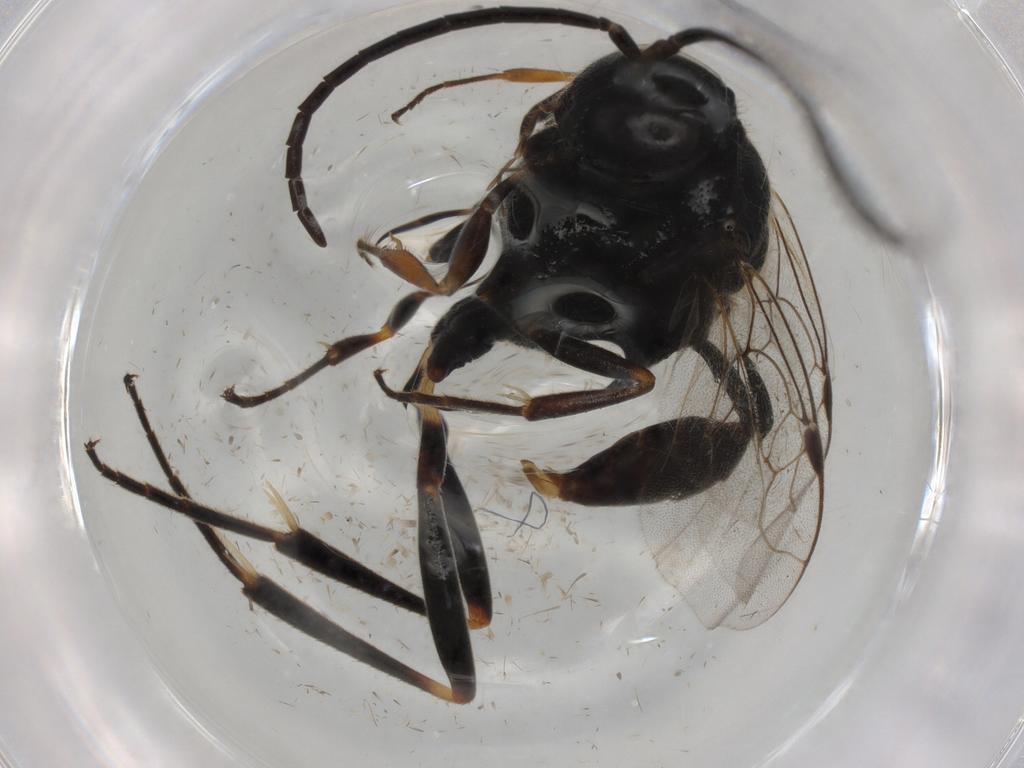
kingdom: Animalia
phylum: Arthropoda
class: Insecta
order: Hymenoptera
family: Evaniidae
